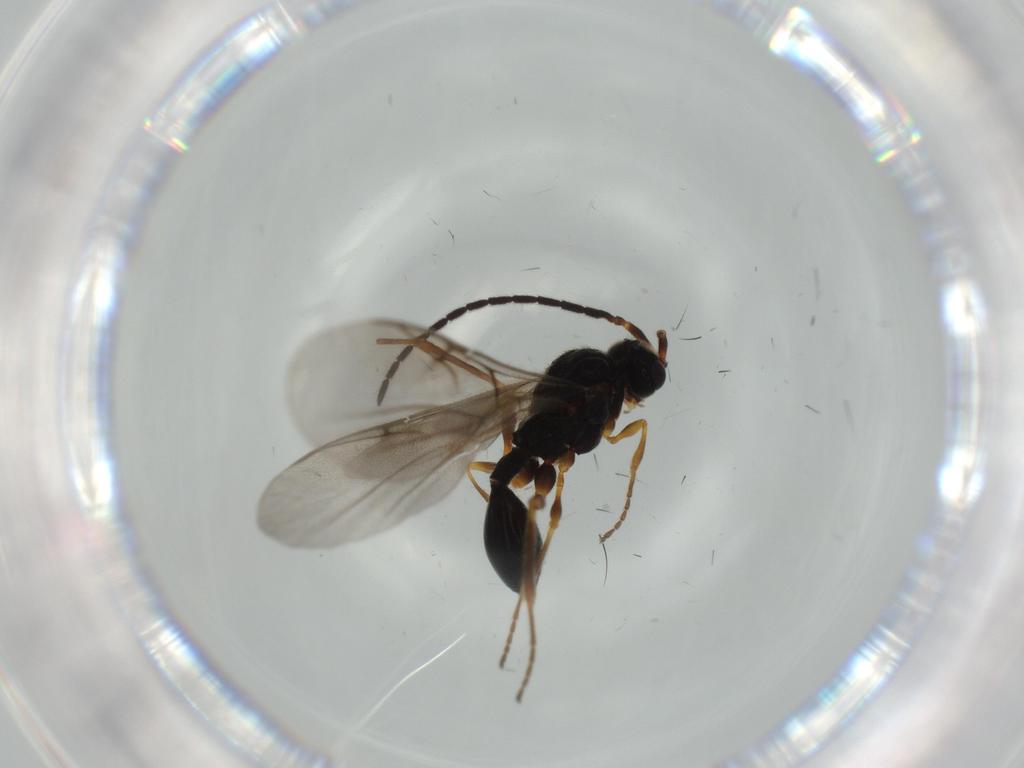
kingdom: Animalia
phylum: Arthropoda
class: Insecta
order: Hymenoptera
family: Diapriidae
